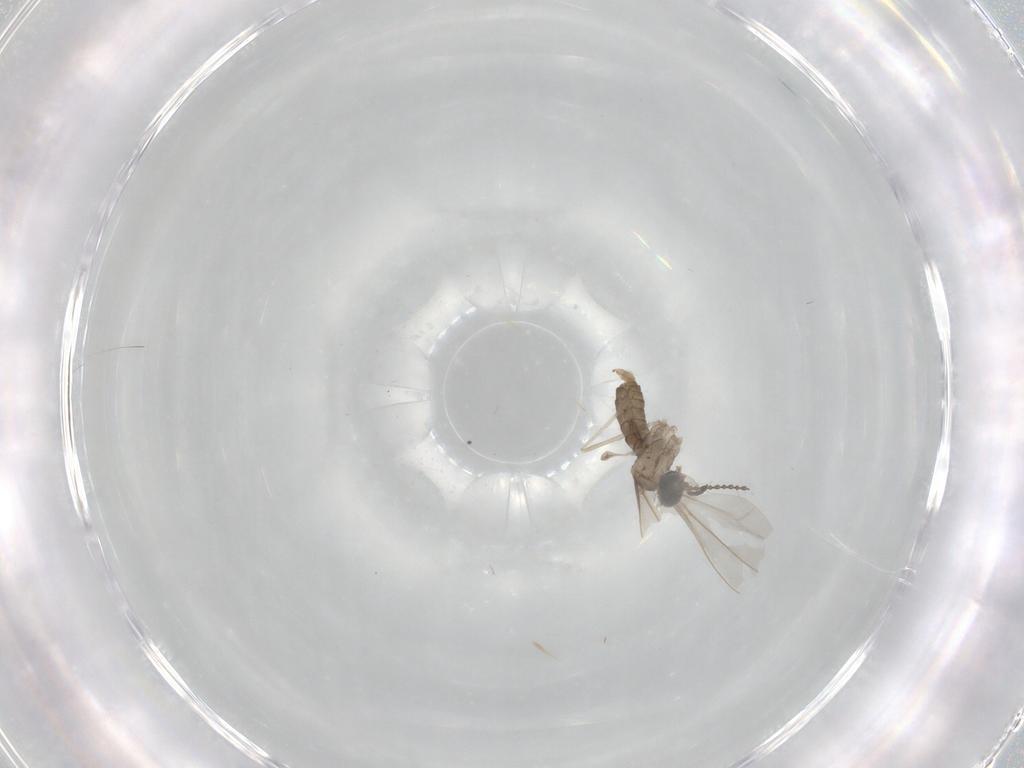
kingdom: Animalia
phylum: Arthropoda
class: Insecta
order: Diptera
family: Cecidomyiidae
